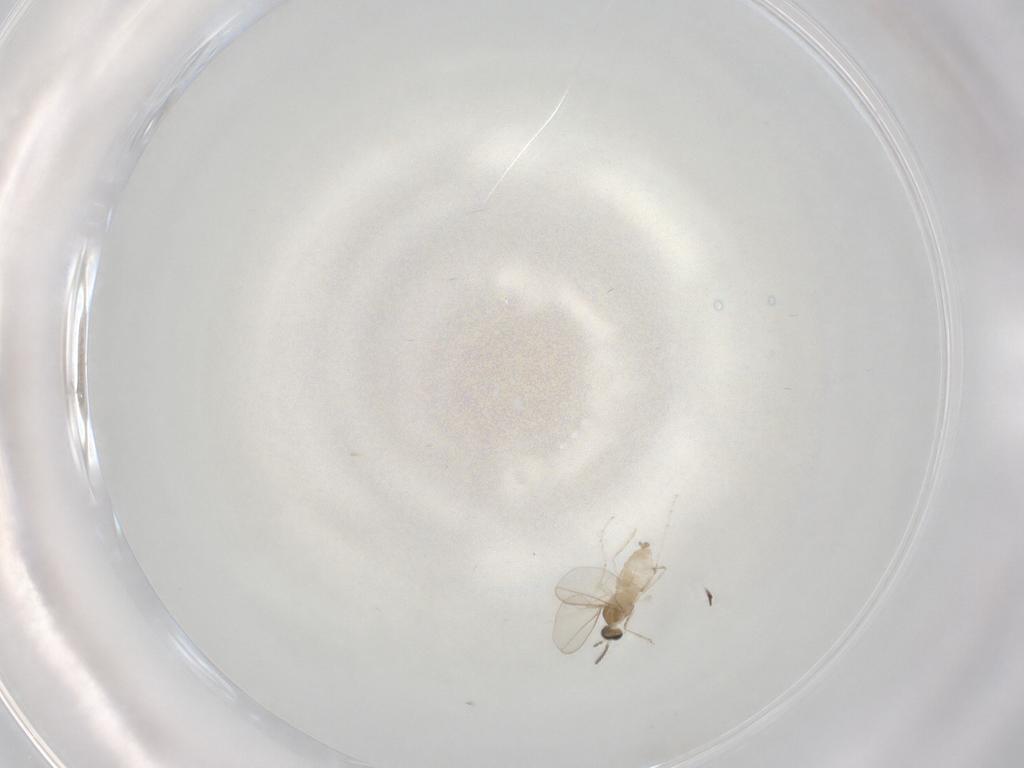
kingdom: Animalia
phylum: Arthropoda
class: Insecta
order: Diptera
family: Cecidomyiidae
